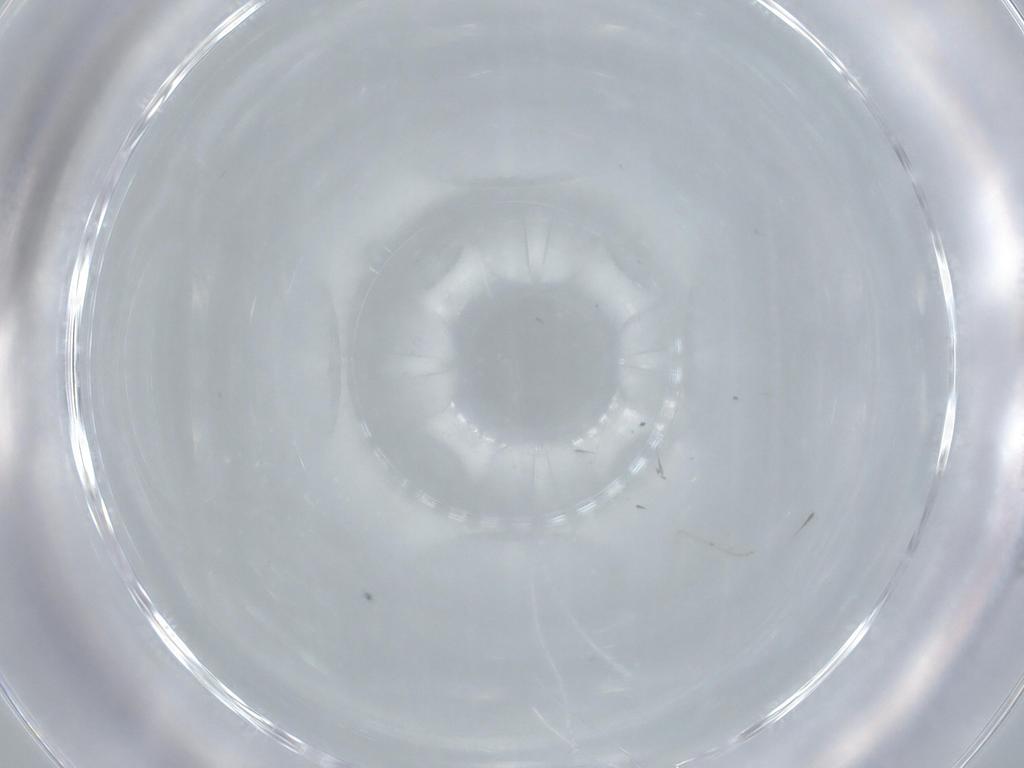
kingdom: Animalia
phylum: Arthropoda
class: Insecta
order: Diptera
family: Chironomidae
